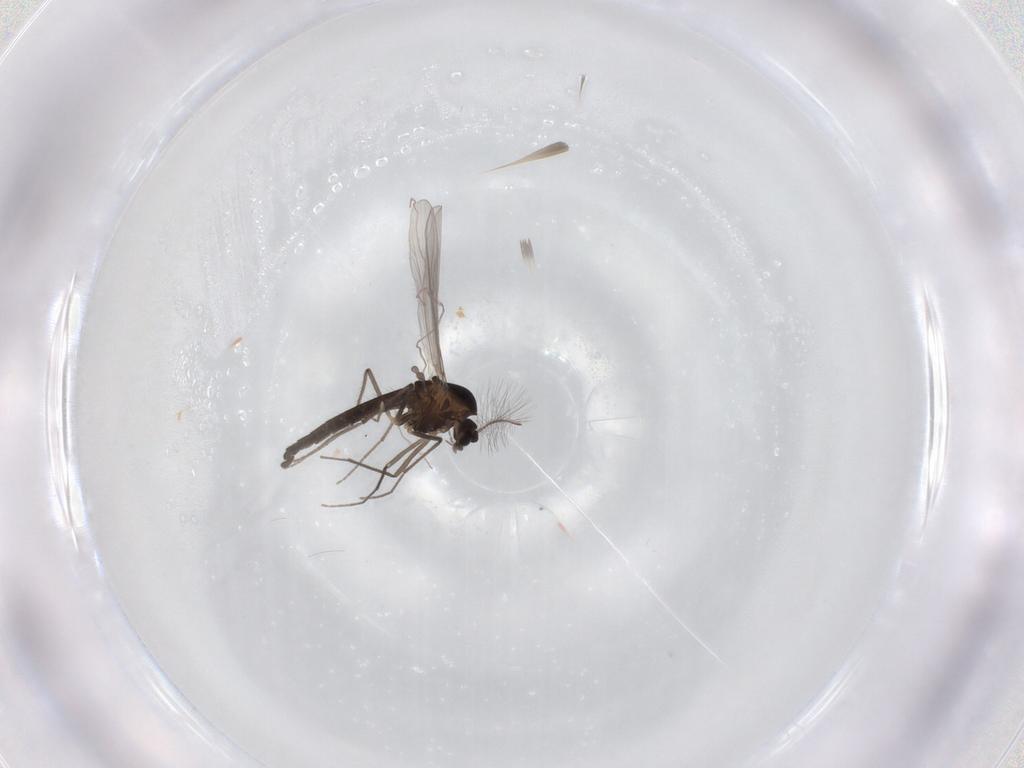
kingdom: Animalia
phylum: Arthropoda
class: Insecta
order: Diptera
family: Chironomidae
